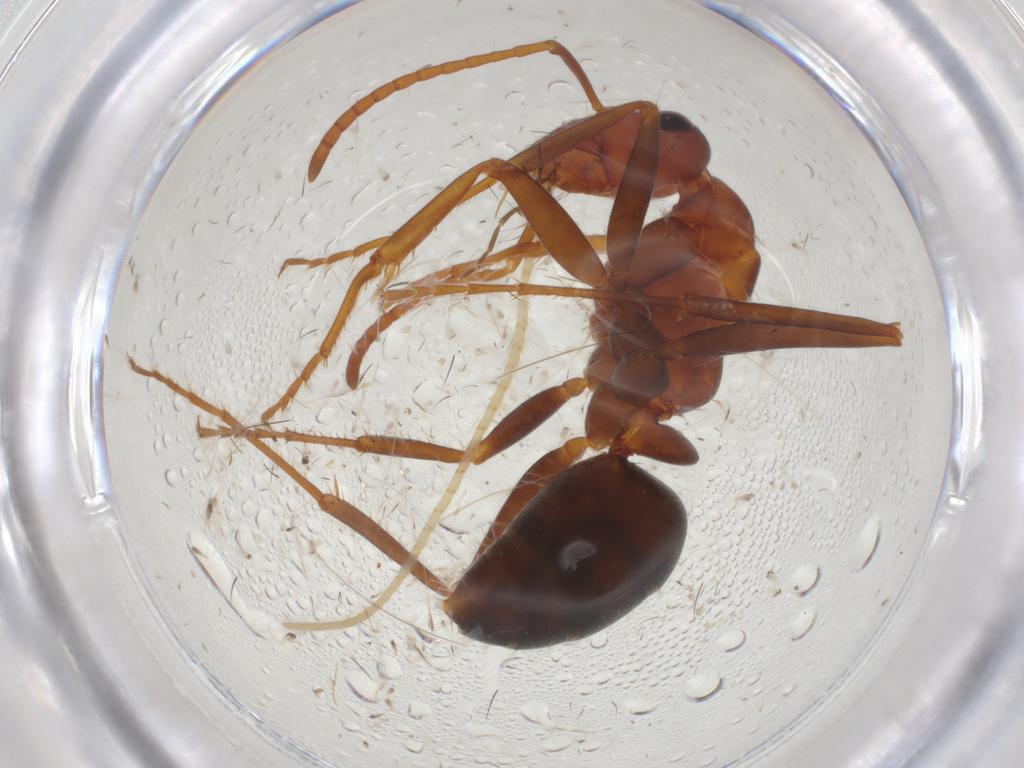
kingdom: Animalia
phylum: Arthropoda
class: Insecta
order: Hymenoptera
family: Formicidae
